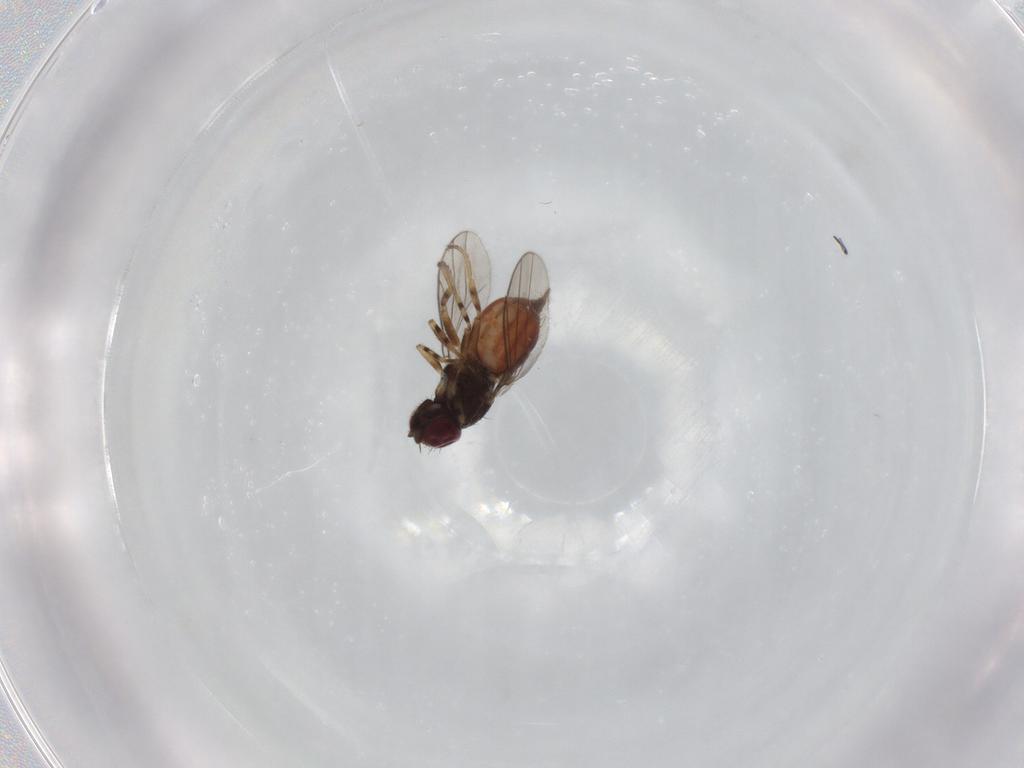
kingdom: Animalia
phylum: Arthropoda
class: Insecta
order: Diptera
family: Chloropidae
